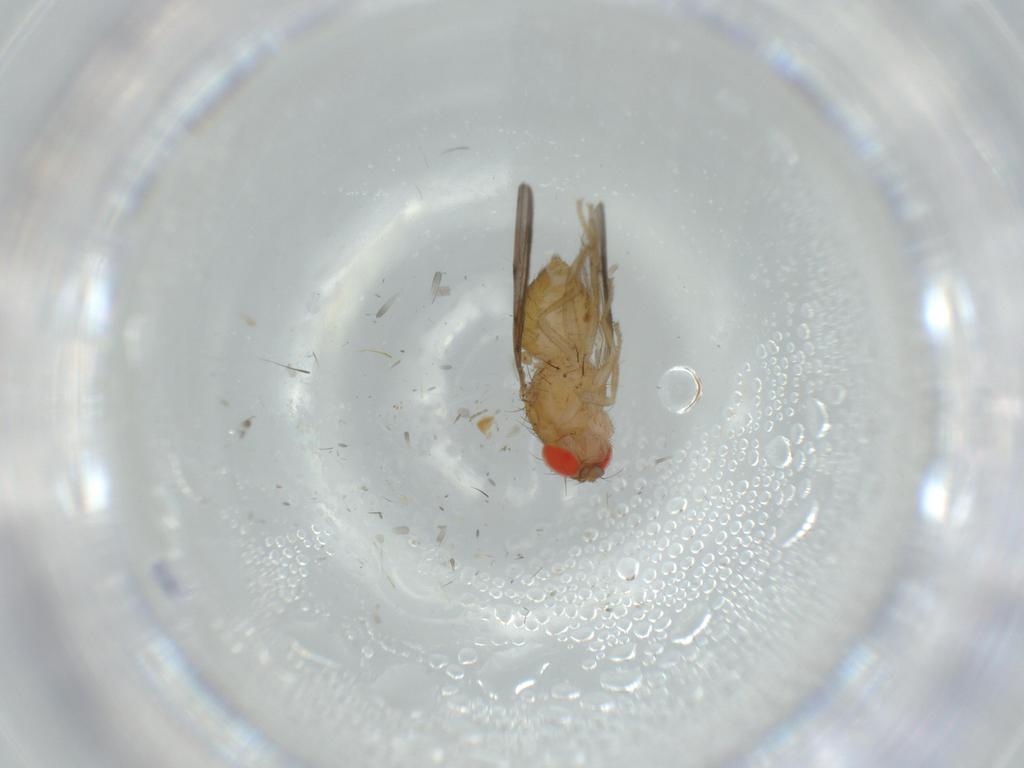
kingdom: Animalia
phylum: Arthropoda
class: Insecta
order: Diptera
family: Drosophilidae
